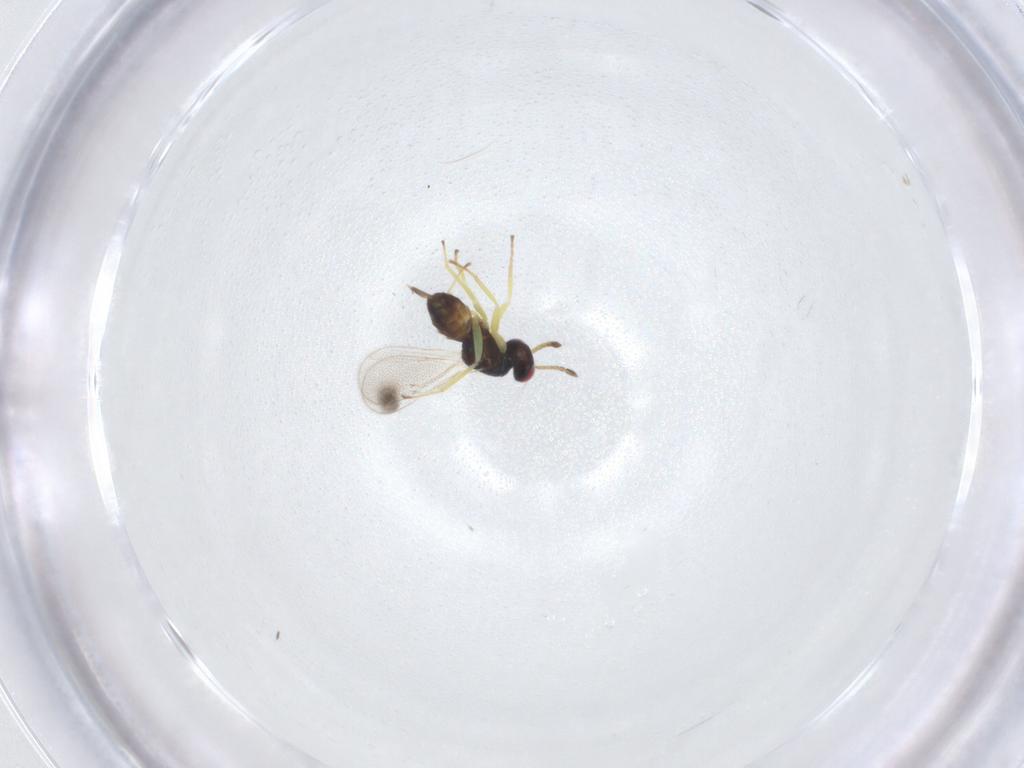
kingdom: Animalia
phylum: Arthropoda
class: Insecta
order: Hymenoptera
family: Eulophidae
